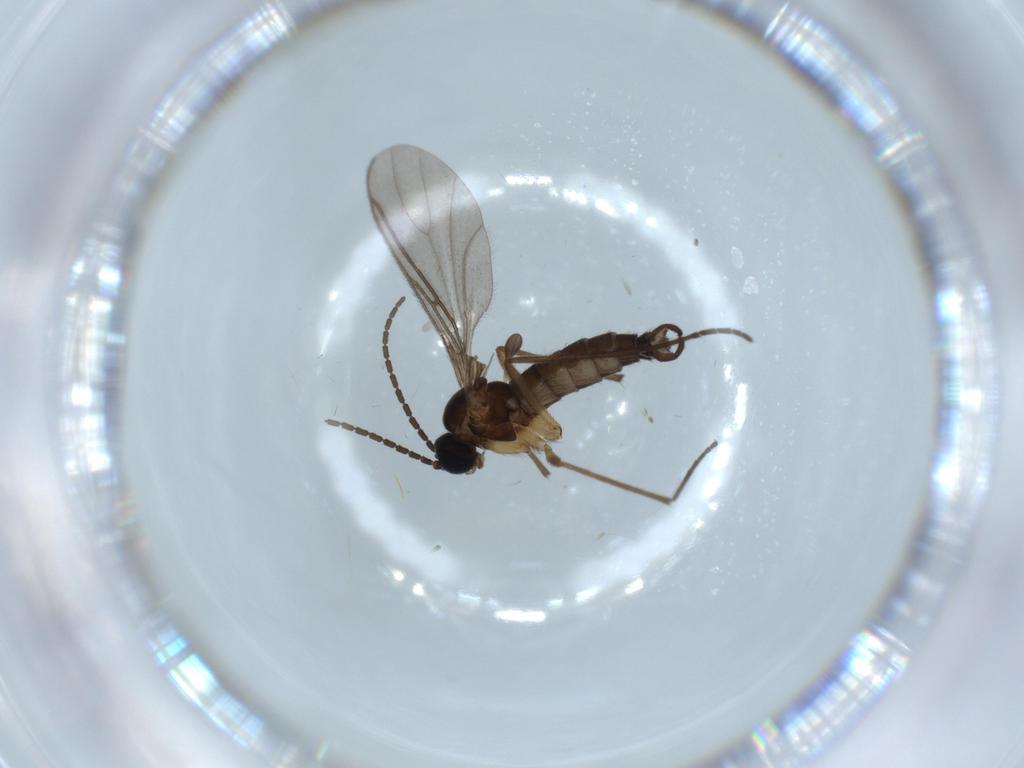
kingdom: Animalia
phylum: Arthropoda
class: Insecta
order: Diptera
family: Sciaridae
